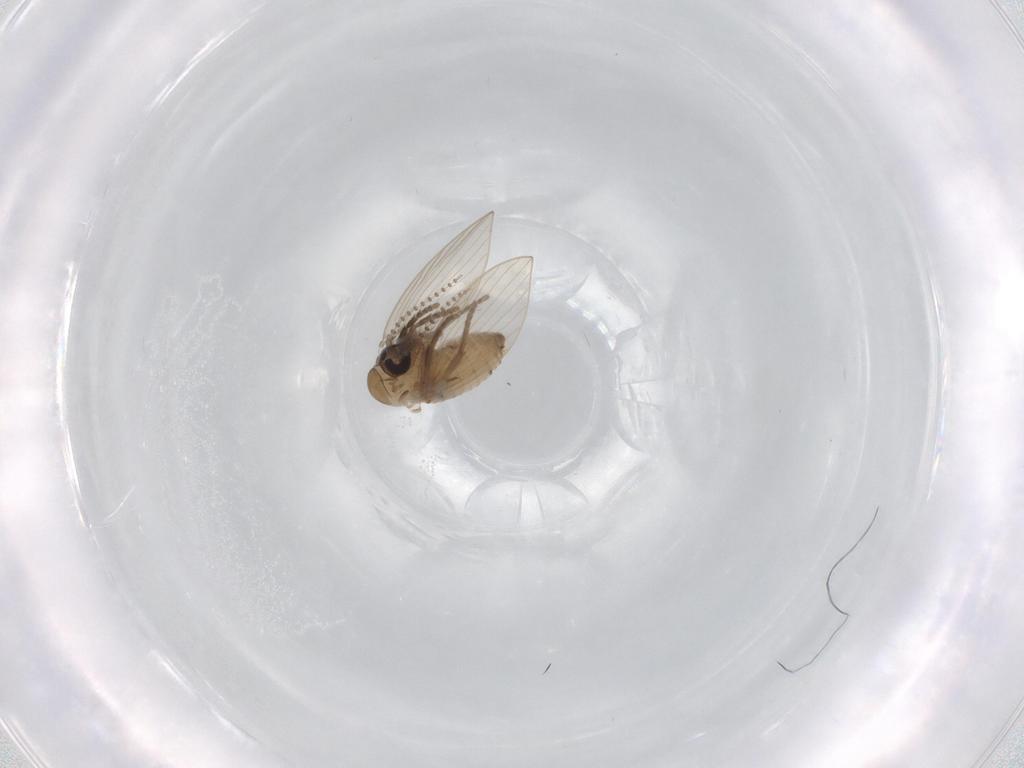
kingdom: Animalia
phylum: Arthropoda
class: Insecta
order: Diptera
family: Psychodidae
